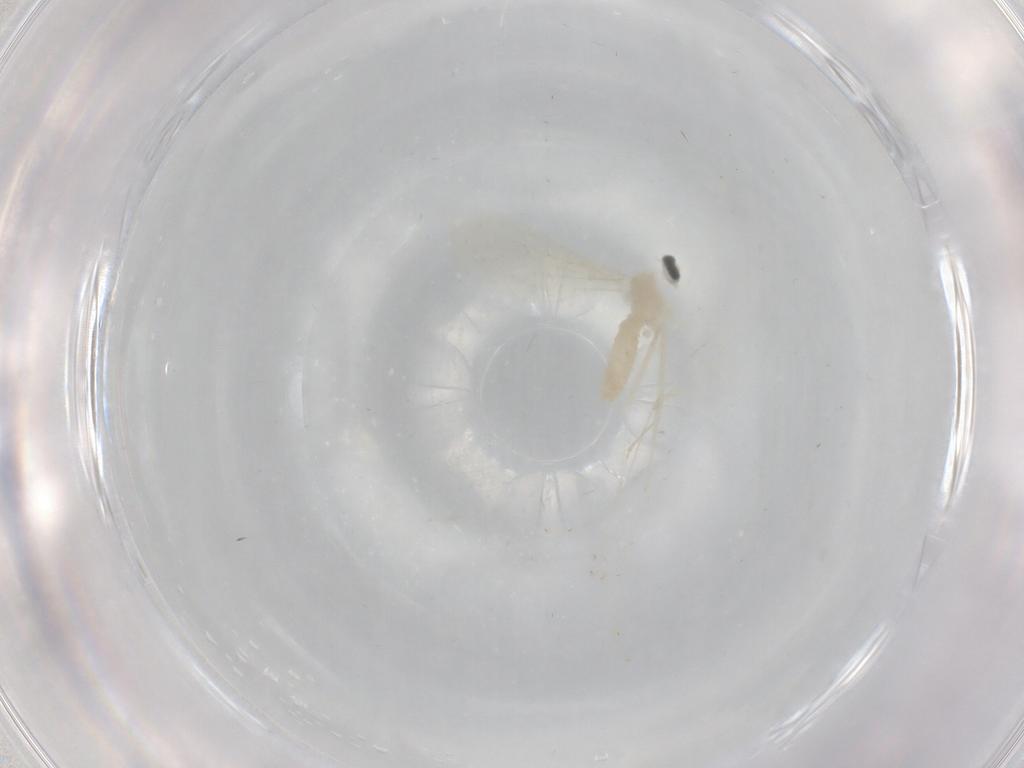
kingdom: Animalia
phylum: Arthropoda
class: Insecta
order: Diptera
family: Cecidomyiidae
